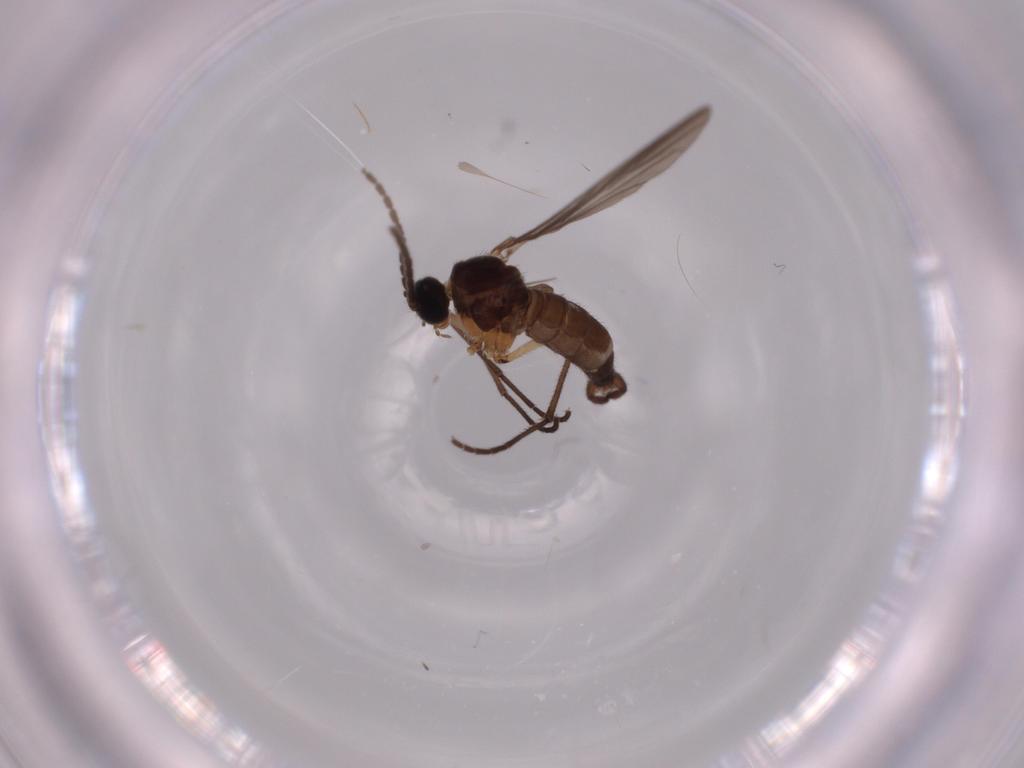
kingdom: Animalia
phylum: Arthropoda
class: Insecta
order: Diptera
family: Sciaridae
